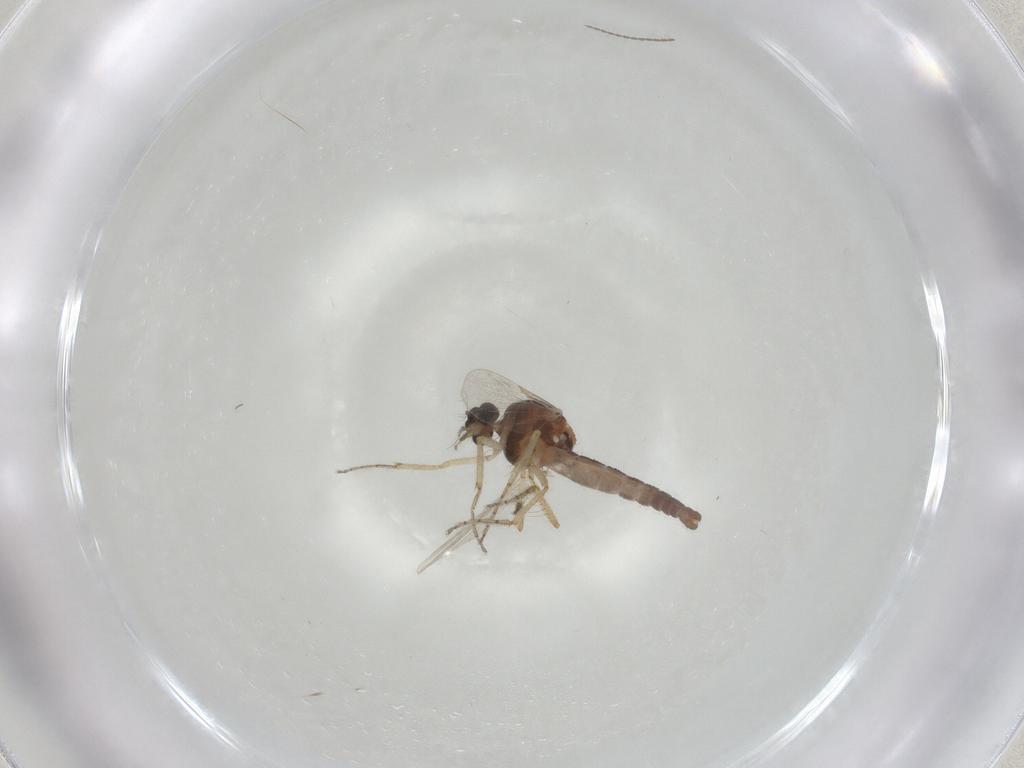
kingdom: Animalia
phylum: Arthropoda
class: Insecta
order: Diptera
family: Ceratopogonidae
